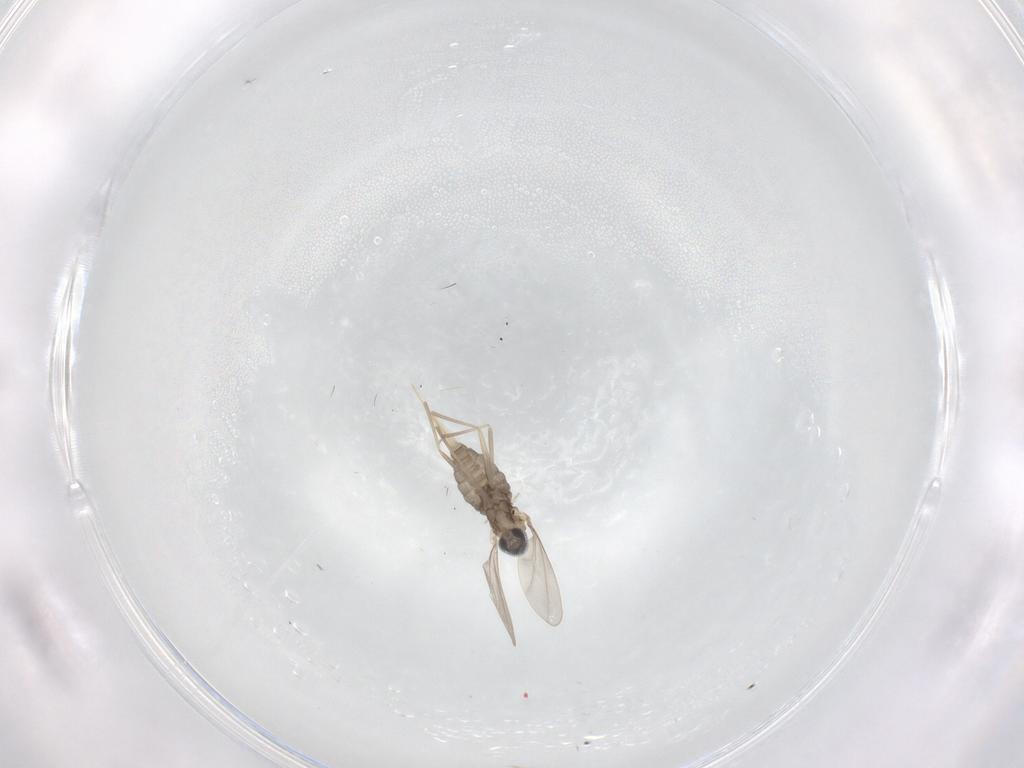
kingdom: Animalia
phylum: Arthropoda
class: Insecta
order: Diptera
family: Cecidomyiidae
